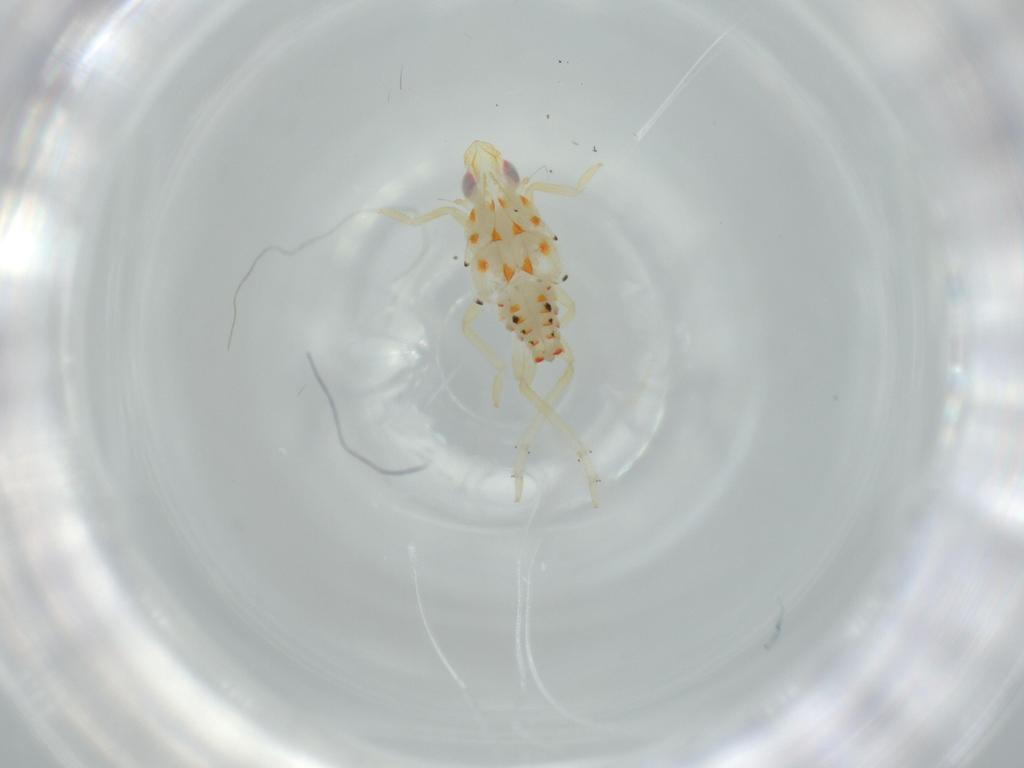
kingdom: Animalia
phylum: Arthropoda
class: Insecta
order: Hemiptera
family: Tropiduchidae
